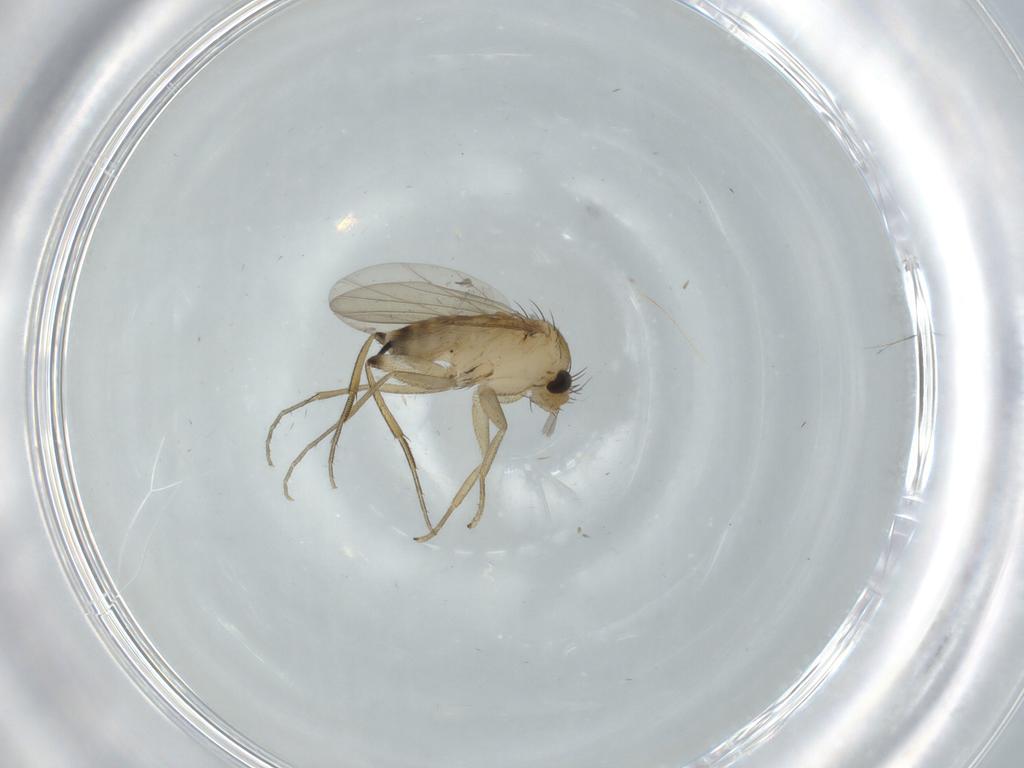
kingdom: Animalia
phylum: Arthropoda
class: Insecta
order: Diptera
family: Phoridae
